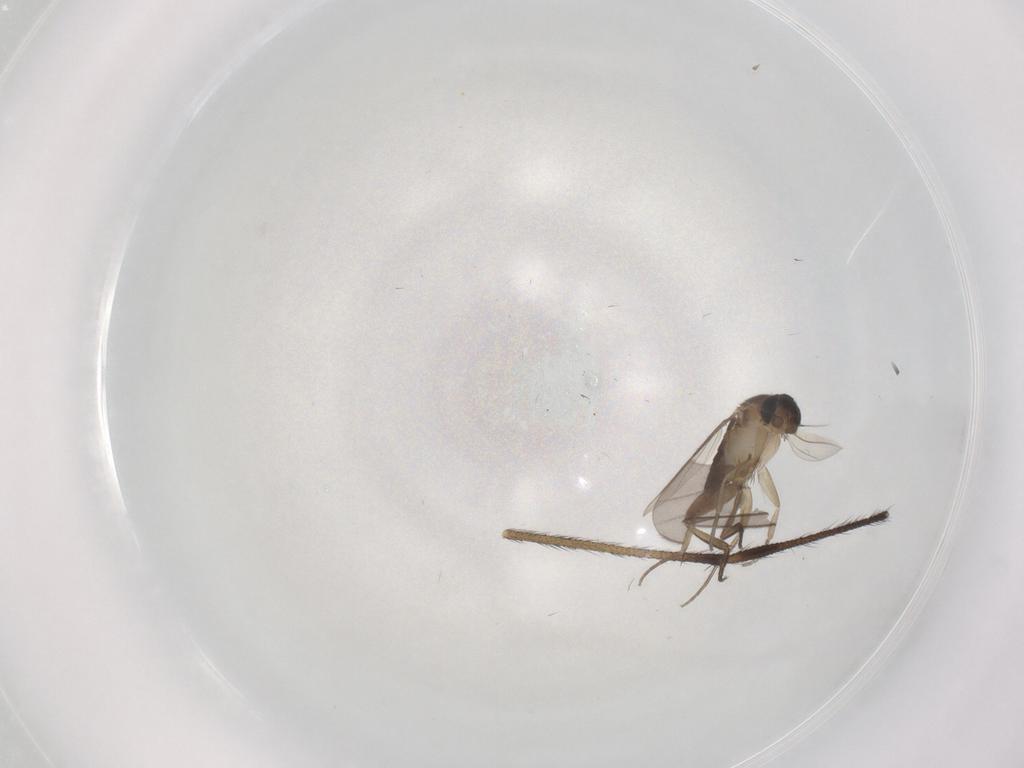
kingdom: Animalia
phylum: Arthropoda
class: Insecta
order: Diptera
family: Phoridae
